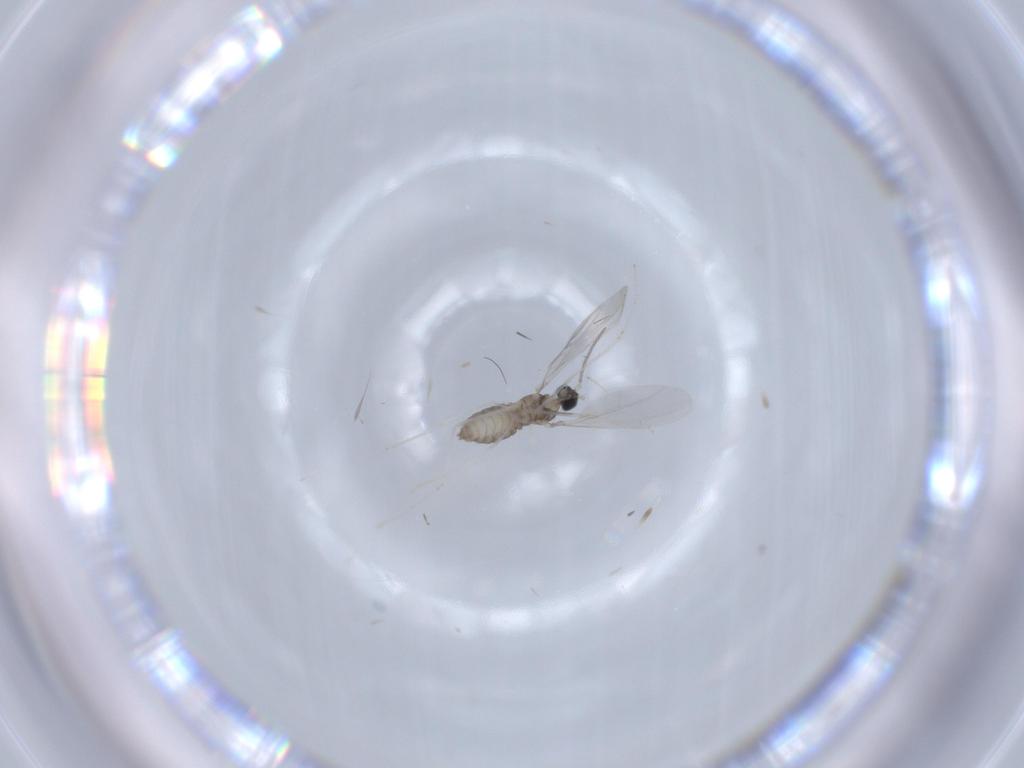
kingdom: Animalia
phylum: Arthropoda
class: Insecta
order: Diptera
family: Cecidomyiidae
